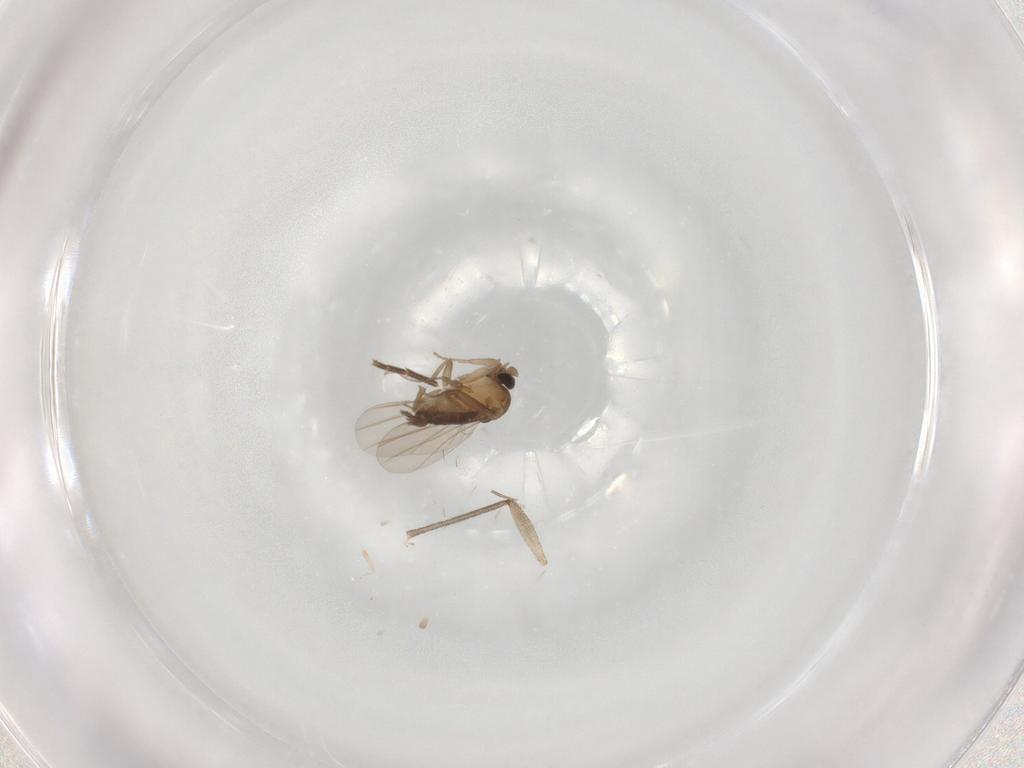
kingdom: Animalia
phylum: Arthropoda
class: Insecta
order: Diptera
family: Phoridae
